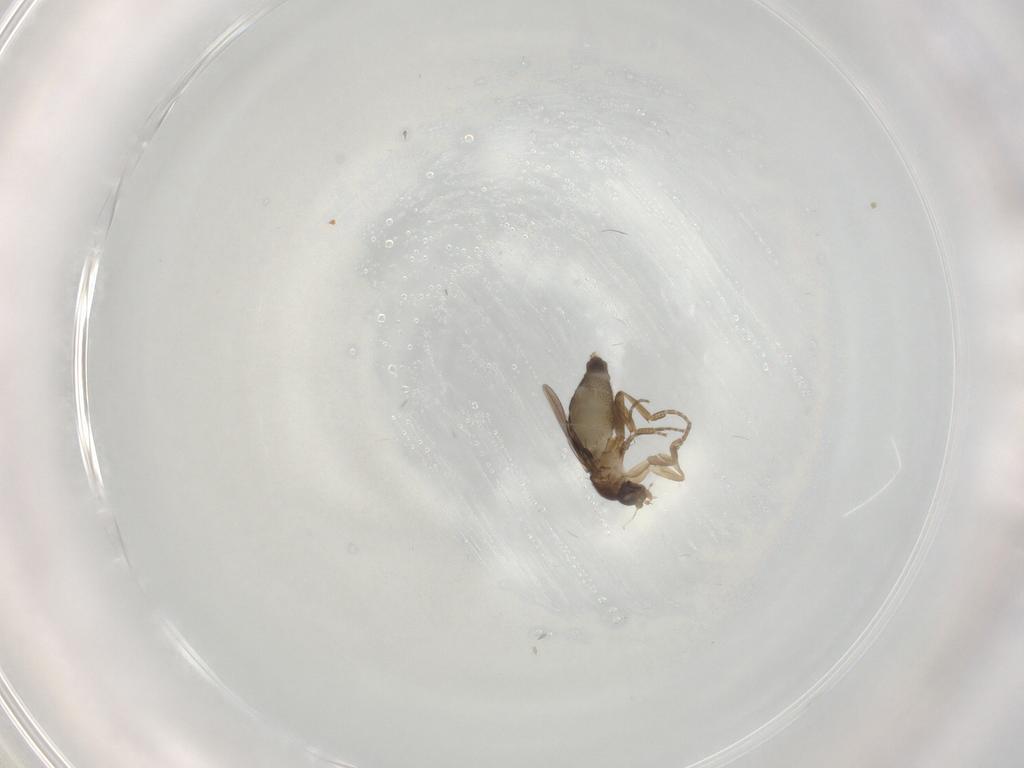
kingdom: Animalia
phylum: Arthropoda
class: Insecta
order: Diptera
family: Phoridae
